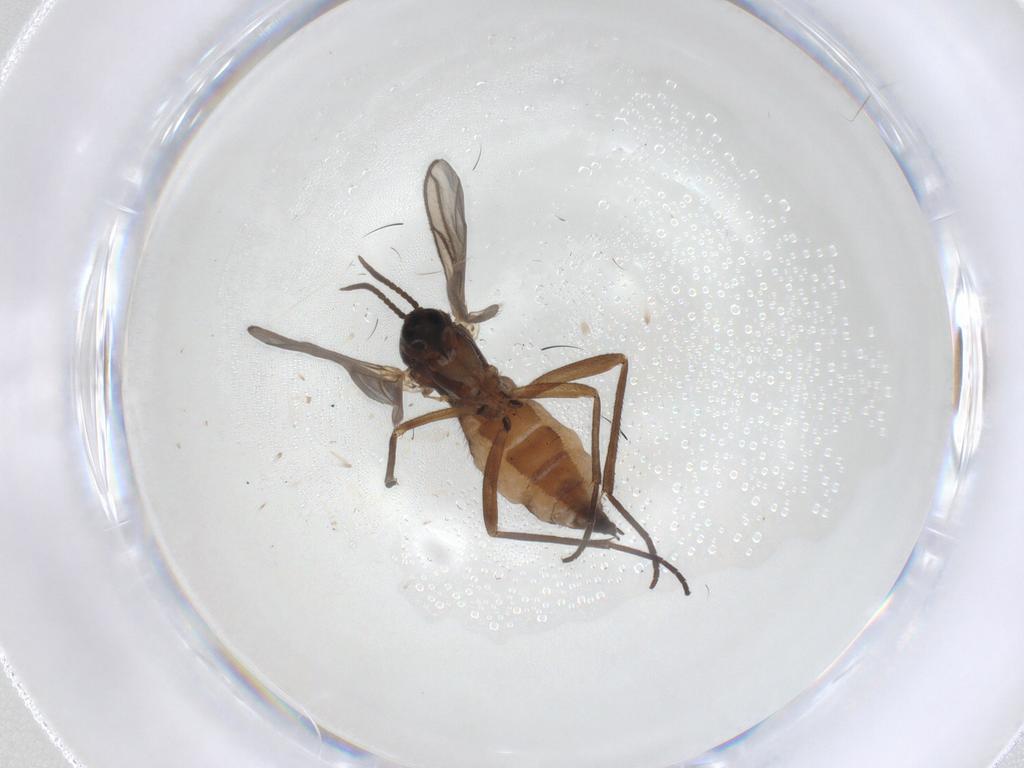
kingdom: Animalia
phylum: Arthropoda
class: Insecta
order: Diptera
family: Sciaridae
